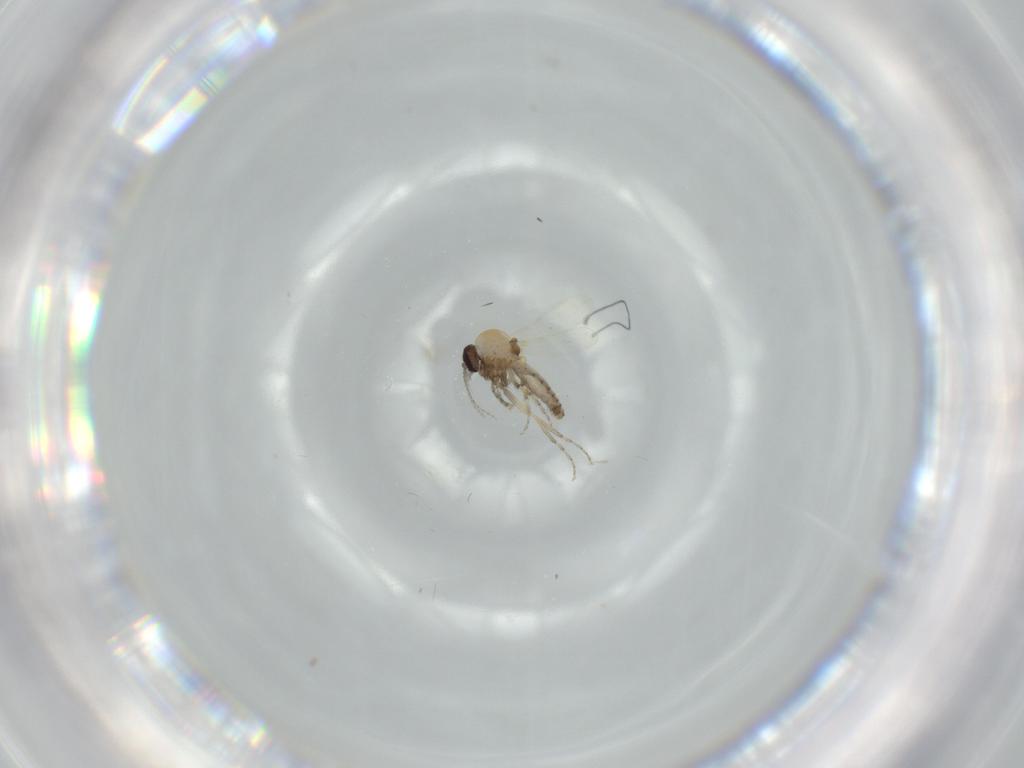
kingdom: Animalia
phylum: Arthropoda
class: Insecta
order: Diptera
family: Ceratopogonidae
